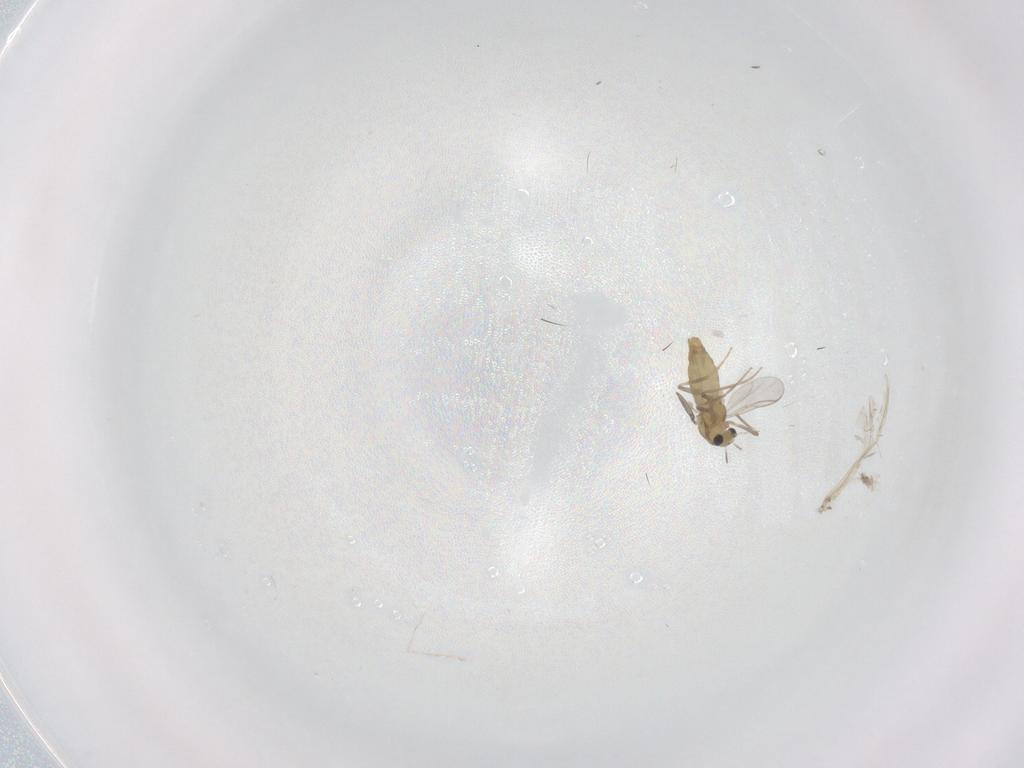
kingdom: Animalia
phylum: Arthropoda
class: Insecta
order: Diptera
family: Chironomidae
